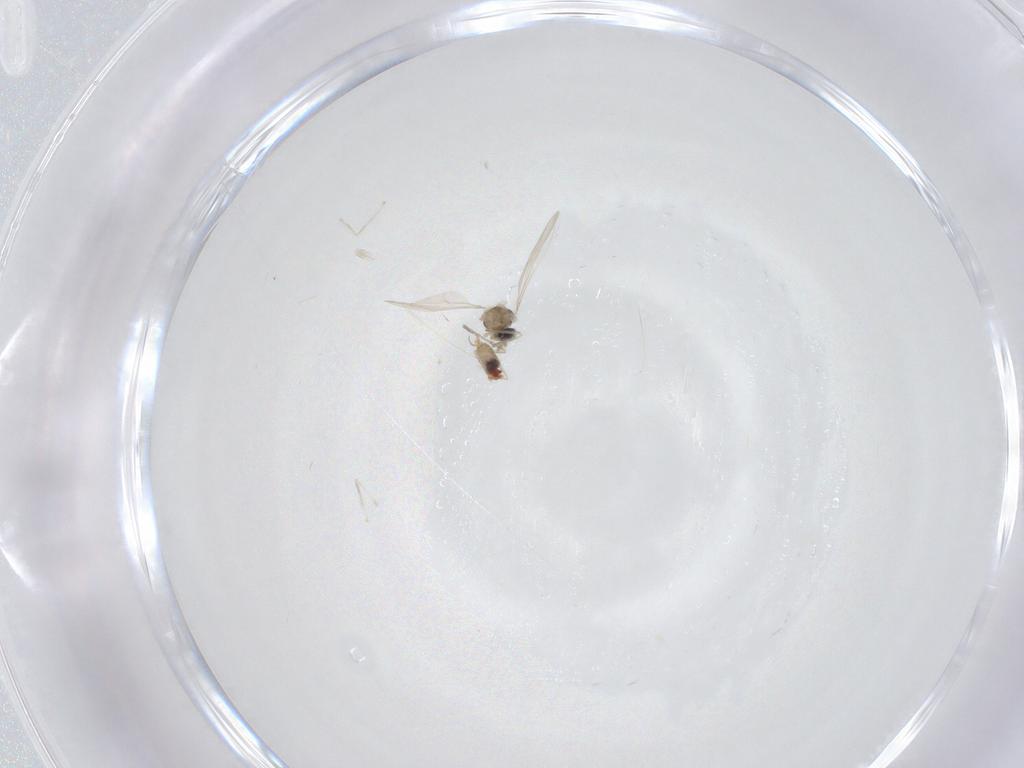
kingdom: Animalia
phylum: Arthropoda
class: Insecta
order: Diptera
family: Cecidomyiidae
